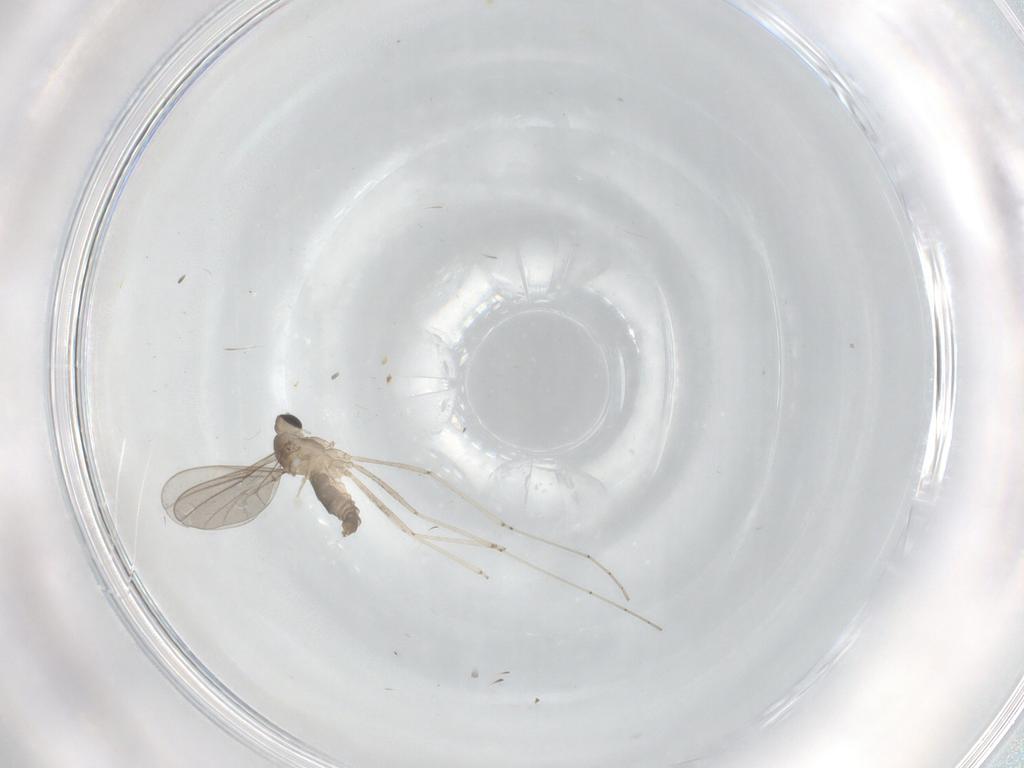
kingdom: Animalia
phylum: Arthropoda
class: Insecta
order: Diptera
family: Cecidomyiidae
